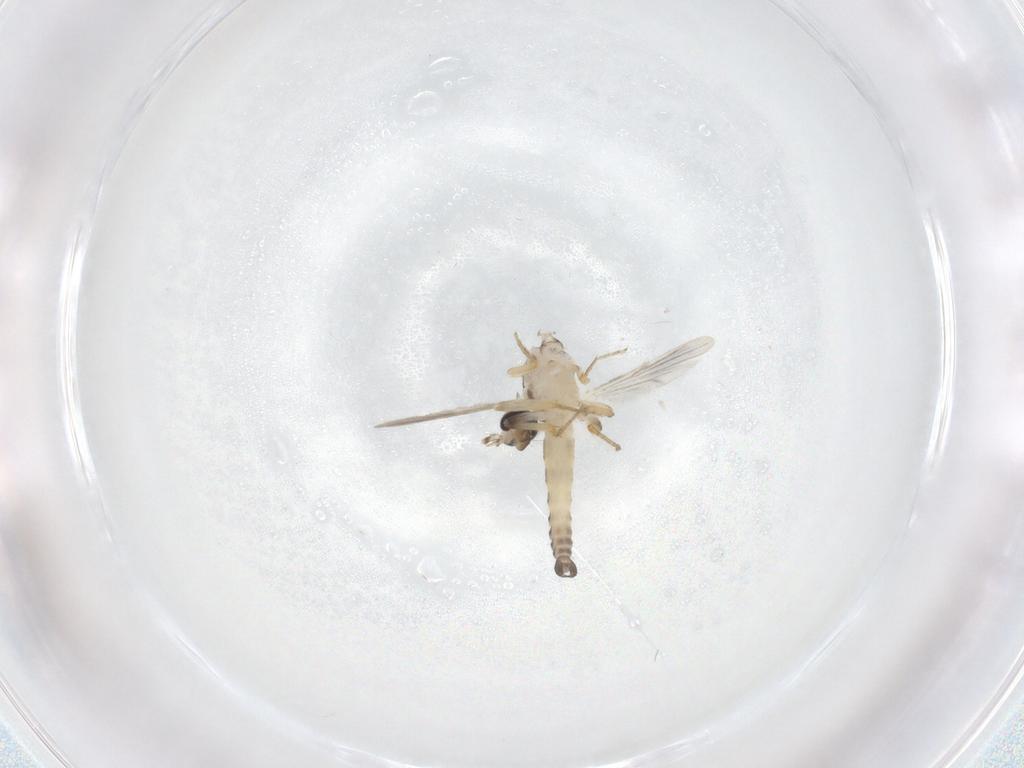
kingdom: Animalia
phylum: Arthropoda
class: Insecta
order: Diptera
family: Ceratopogonidae
